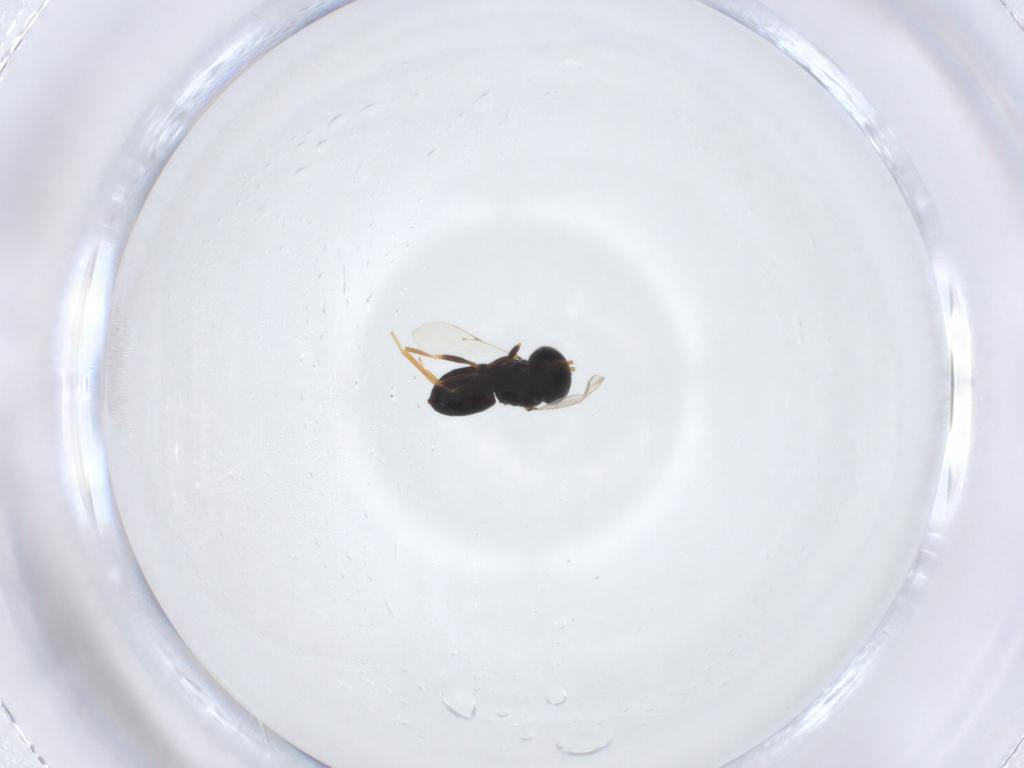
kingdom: Animalia
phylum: Arthropoda
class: Insecta
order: Hymenoptera
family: Scelionidae
